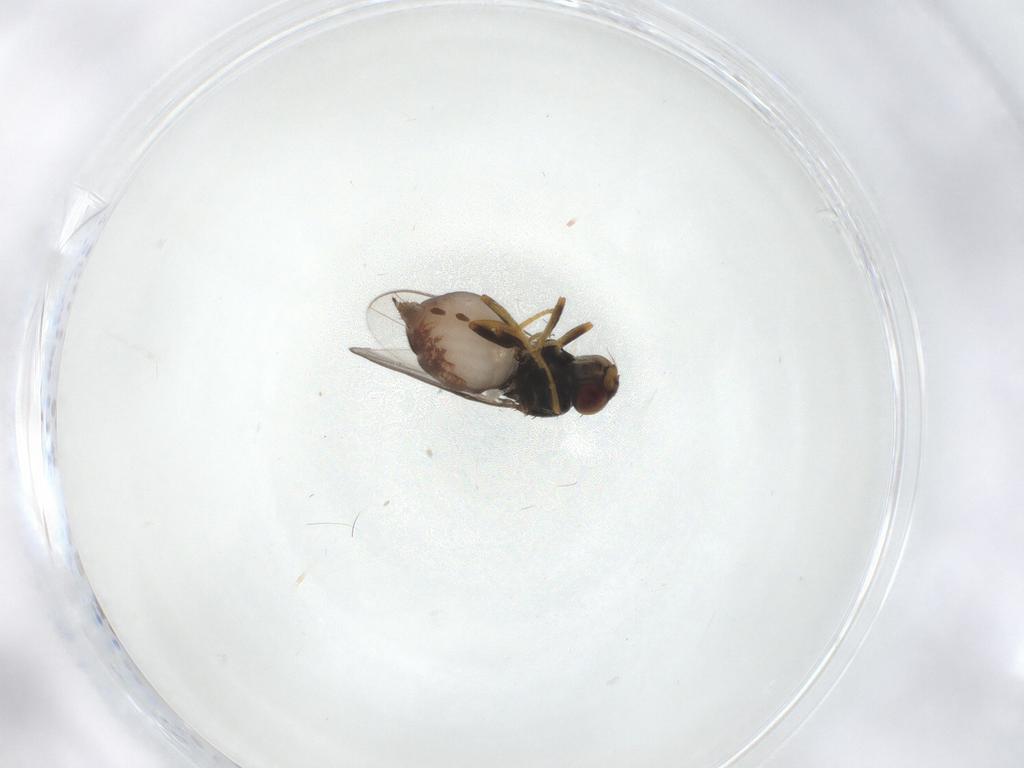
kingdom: Animalia
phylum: Arthropoda
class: Insecta
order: Diptera
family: Chloropidae
